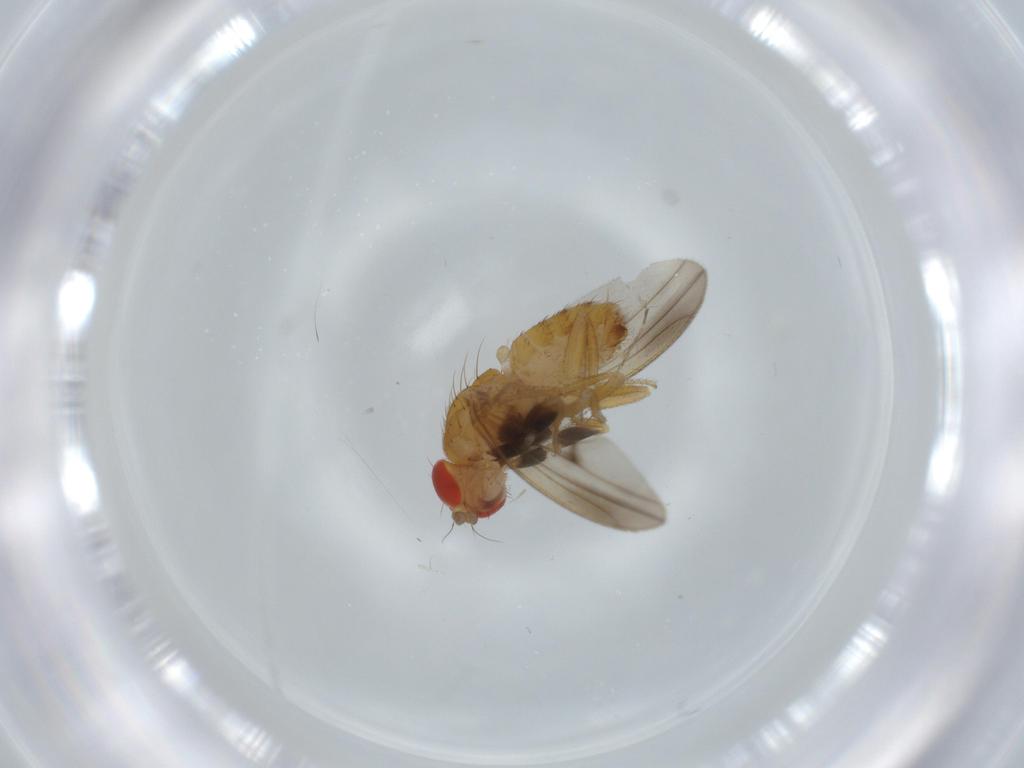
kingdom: Animalia
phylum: Arthropoda
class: Insecta
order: Diptera
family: Drosophilidae
